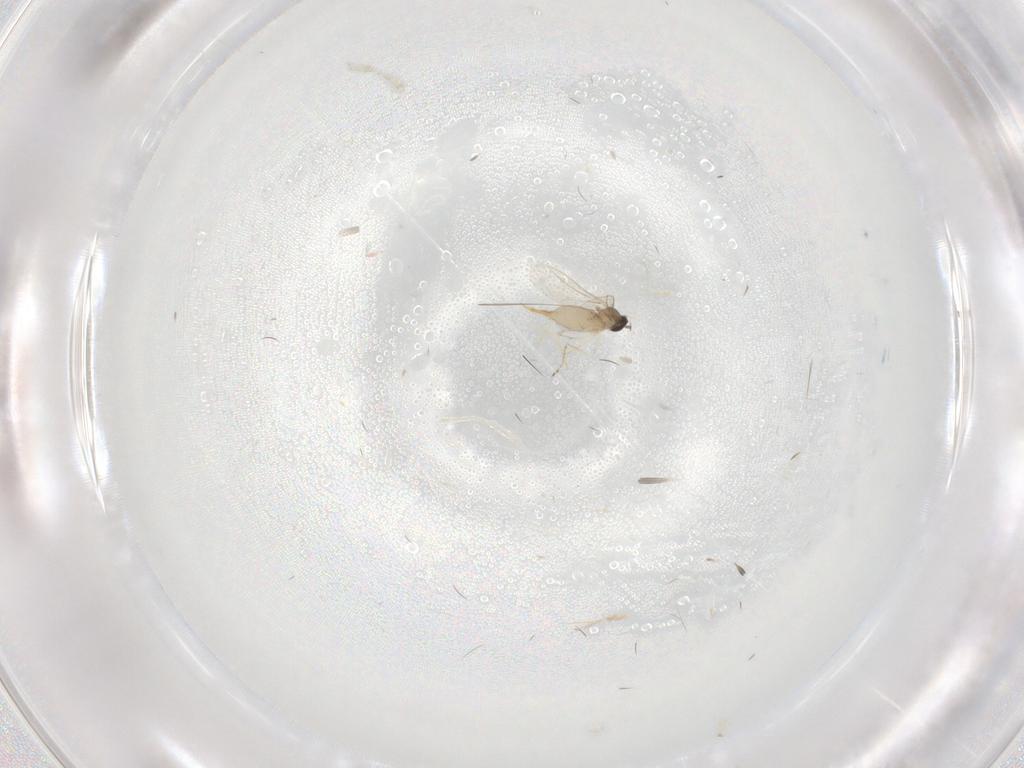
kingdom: Animalia
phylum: Arthropoda
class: Insecta
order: Diptera
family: Cecidomyiidae
